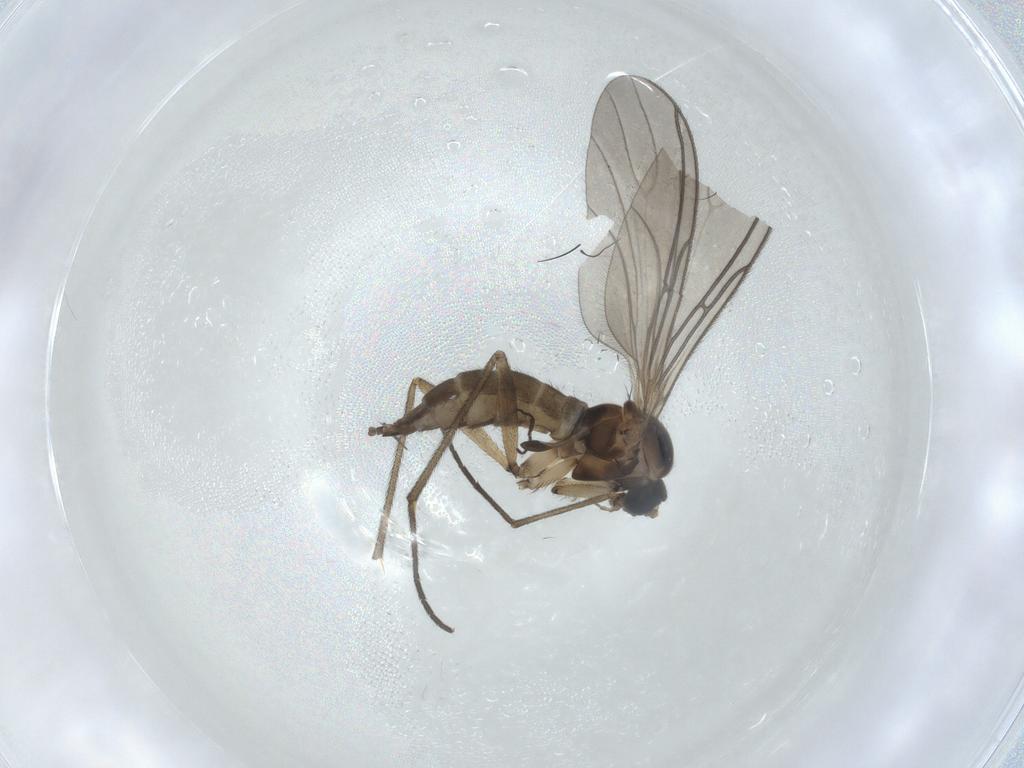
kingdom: Animalia
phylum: Arthropoda
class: Insecta
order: Diptera
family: Sciaridae
